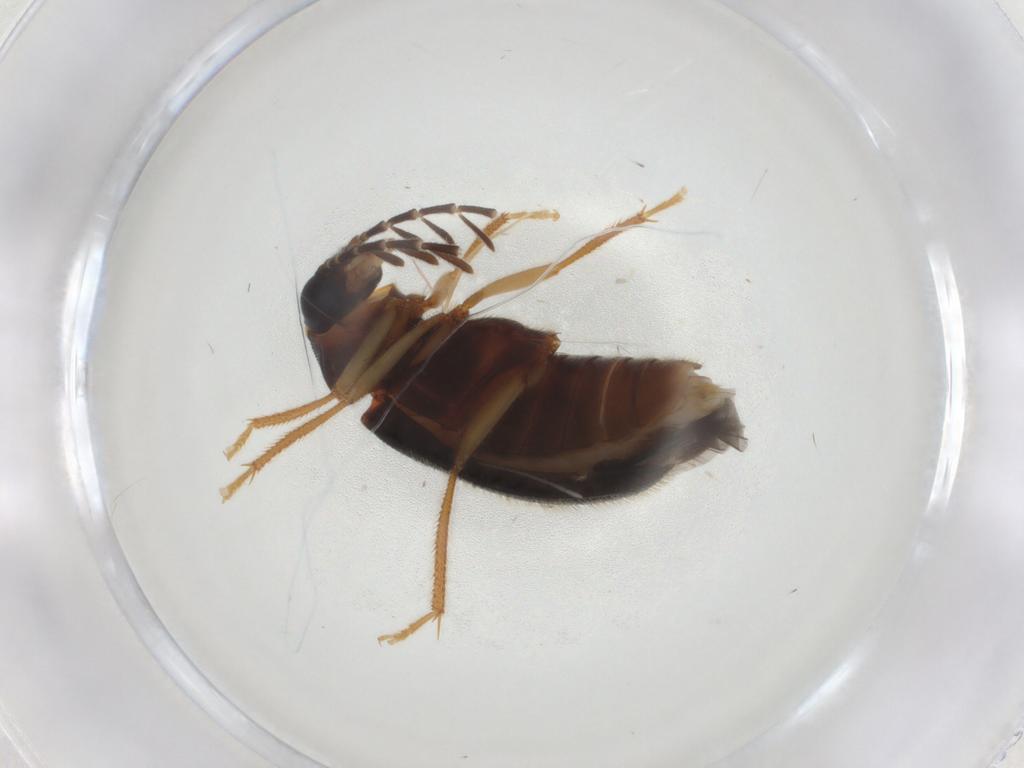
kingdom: Animalia
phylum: Arthropoda
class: Insecta
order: Coleoptera
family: Ptilodactylidae
